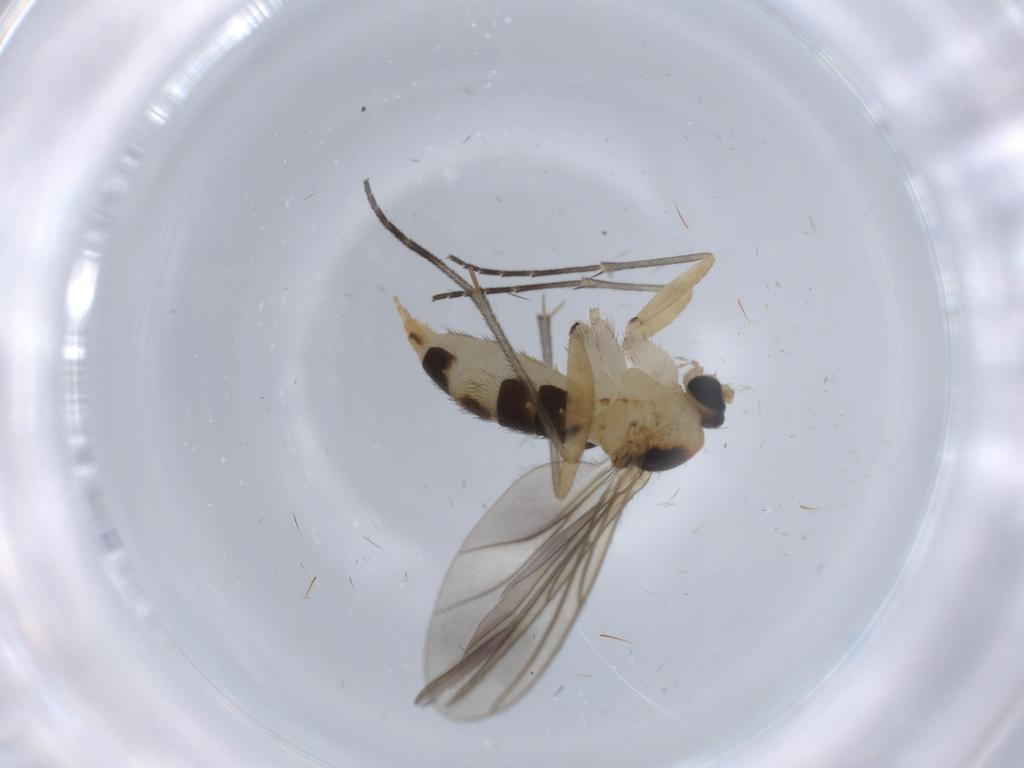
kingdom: Animalia
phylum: Arthropoda
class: Insecta
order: Diptera
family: Sciaridae
